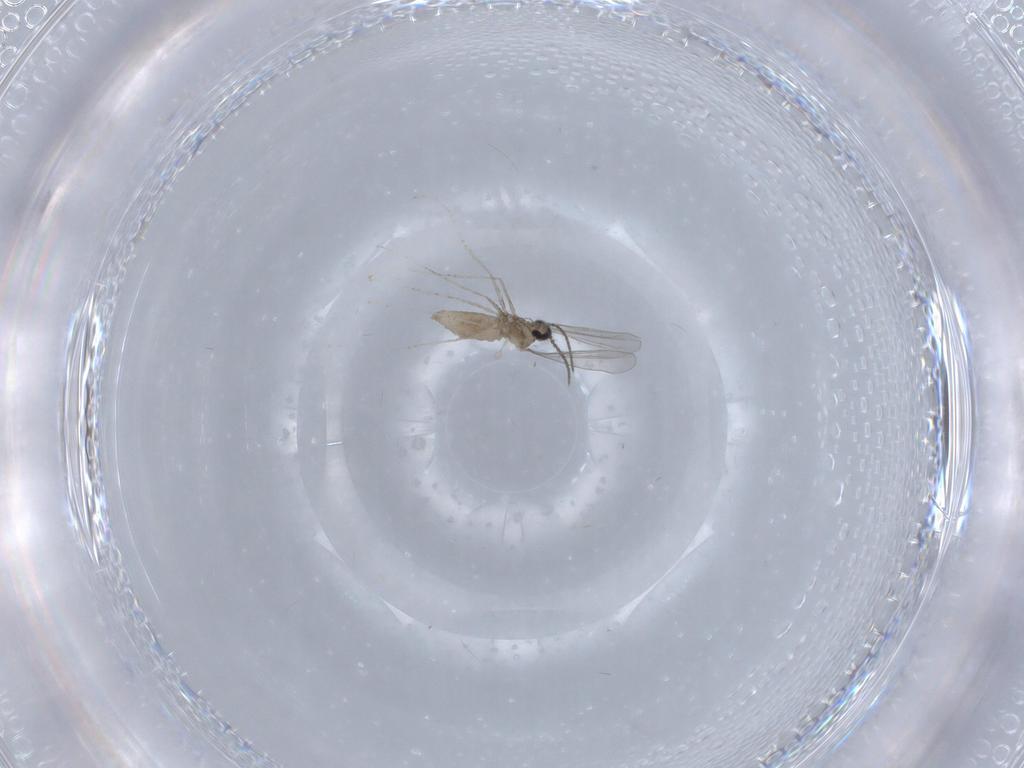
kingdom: Animalia
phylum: Arthropoda
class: Insecta
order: Diptera
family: Cecidomyiidae
